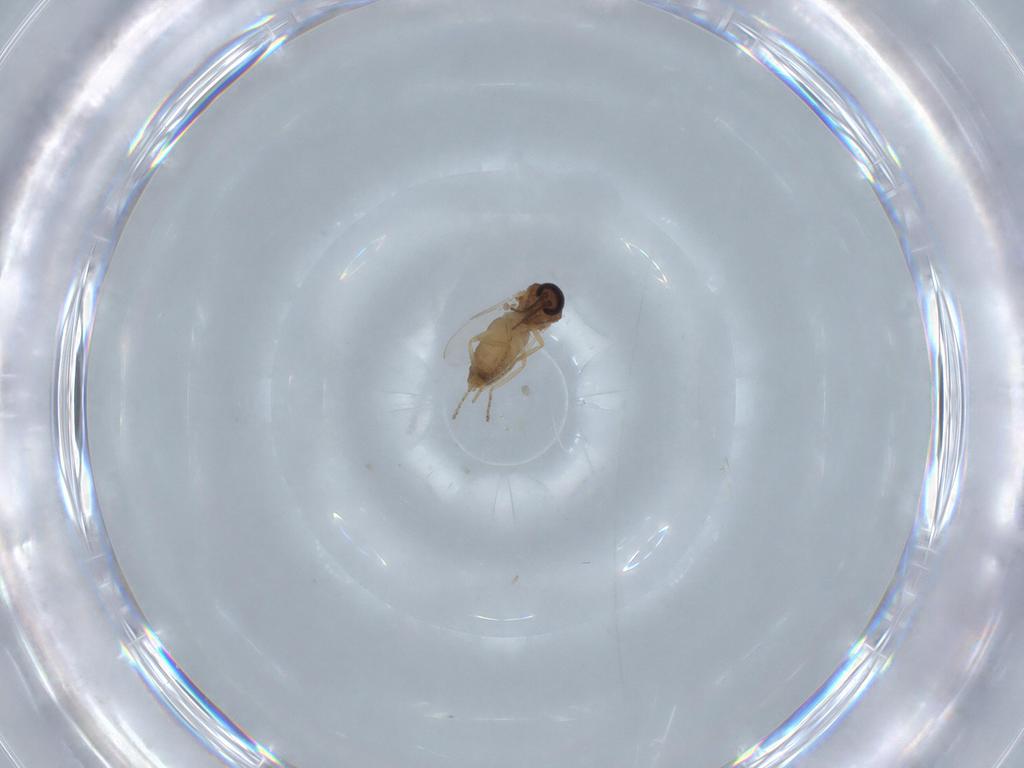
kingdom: Animalia
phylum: Arthropoda
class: Insecta
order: Diptera
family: Ceratopogonidae
